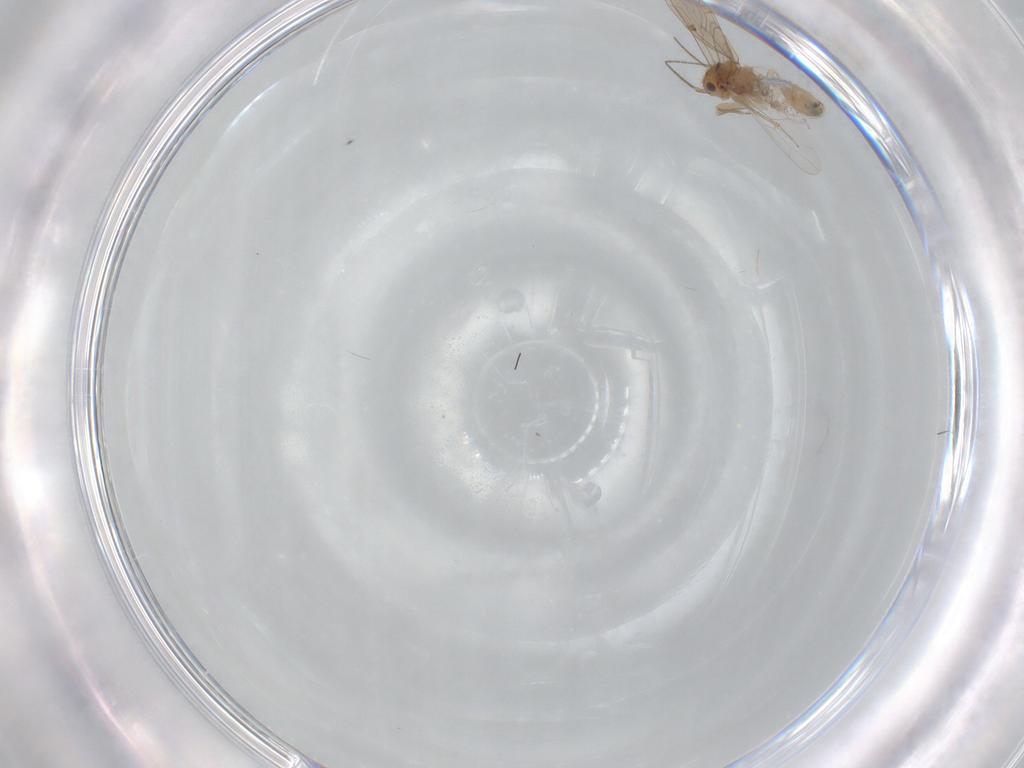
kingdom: Animalia
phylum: Arthropoda
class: Insecta
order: Psocodea
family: Ectopsocidae
